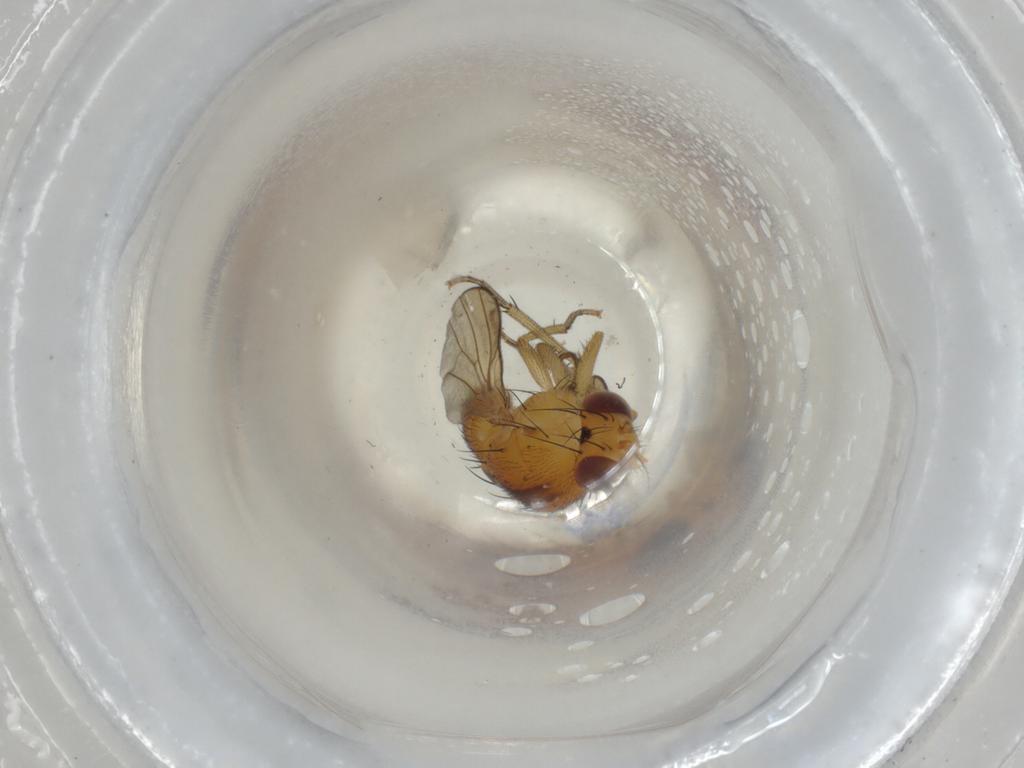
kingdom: Animalia
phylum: Arthropoda
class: Insecta
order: Diptera
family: Lauxaniidae
